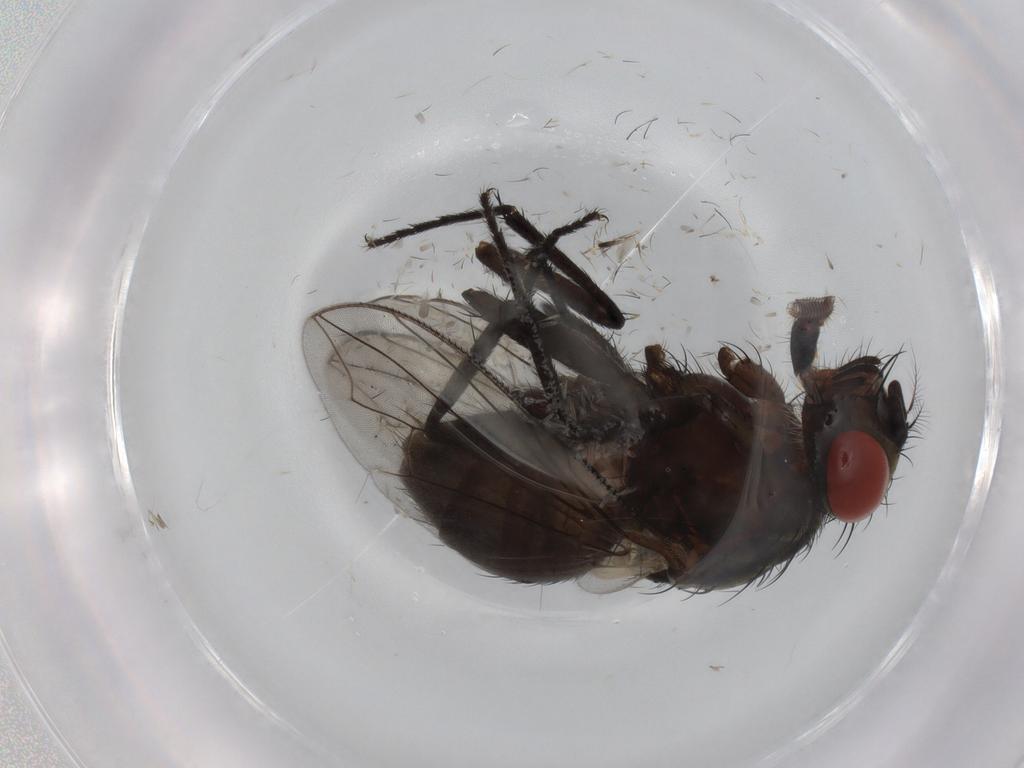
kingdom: Animalia
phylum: Arthropoda
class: Insecta
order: Diptera
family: Sarcophagidae
